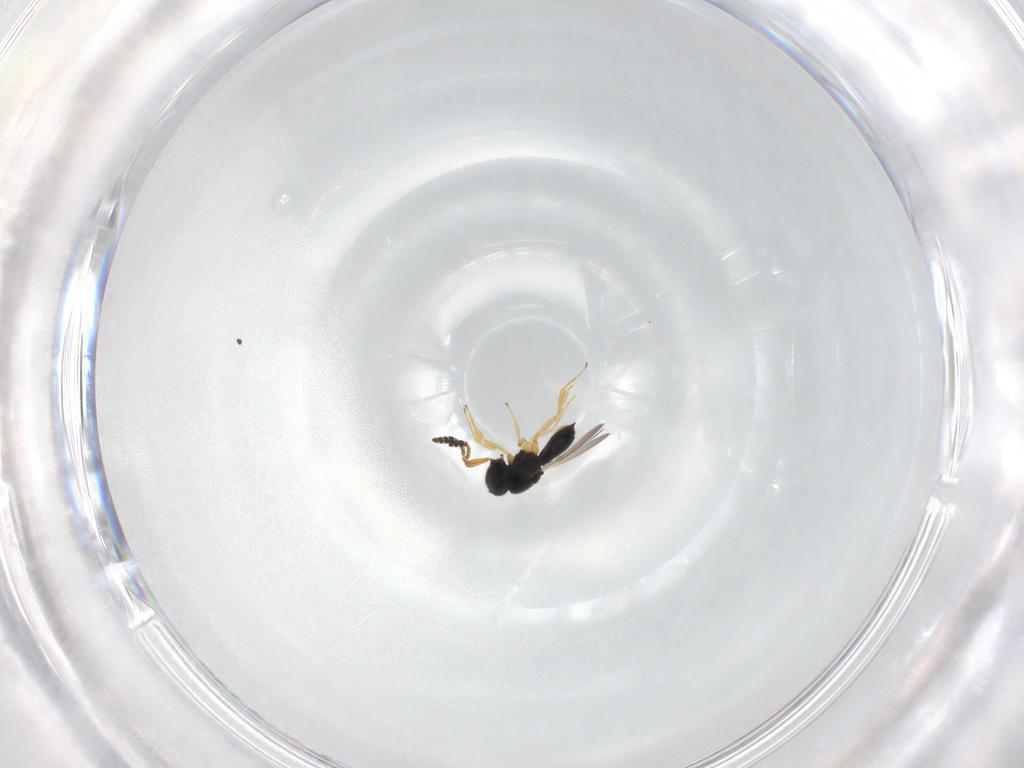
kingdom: Animalia
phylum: Arthropoda
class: Insecta
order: Hymenoptera
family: Scelionidae
